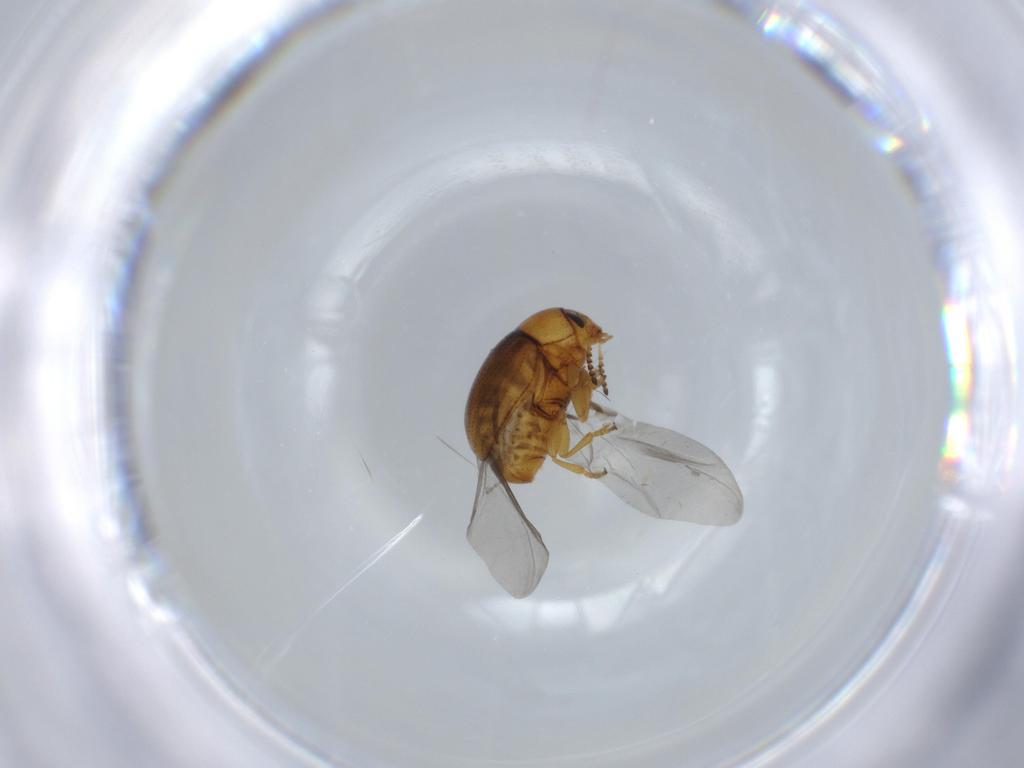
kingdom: Animalia
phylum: Arthropoda
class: Insecta
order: Coleoptera
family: Chrysomelidae
